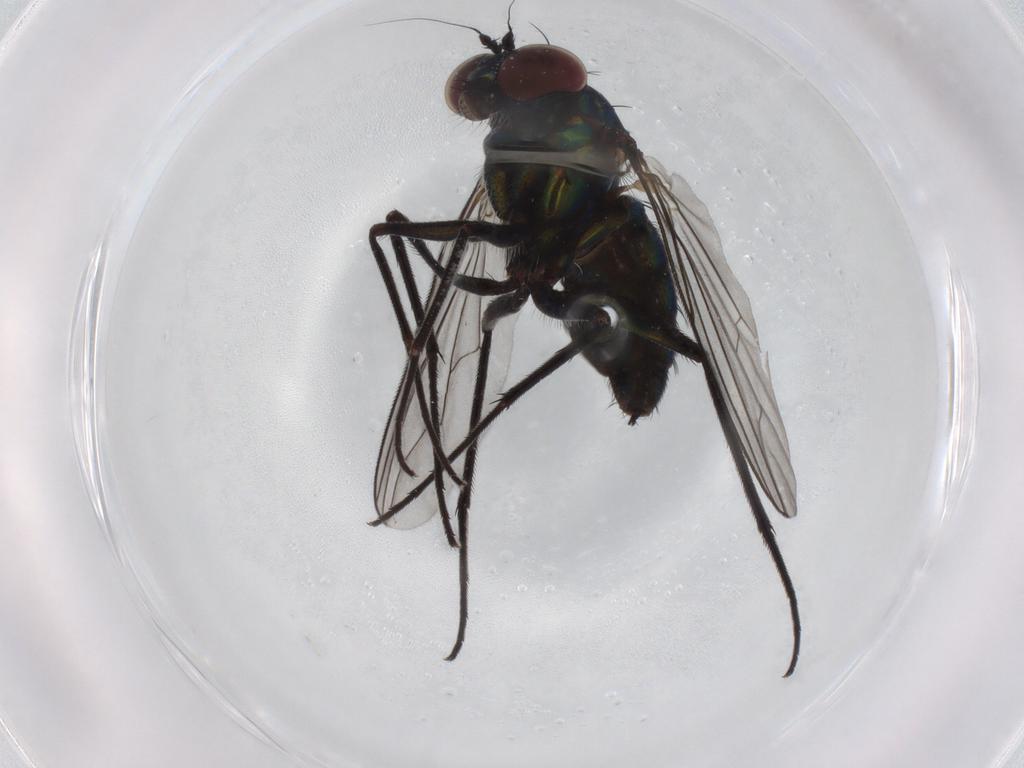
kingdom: Animalia
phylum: Arthropoda
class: Insecta
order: Diptera
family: Dolichopodidae
